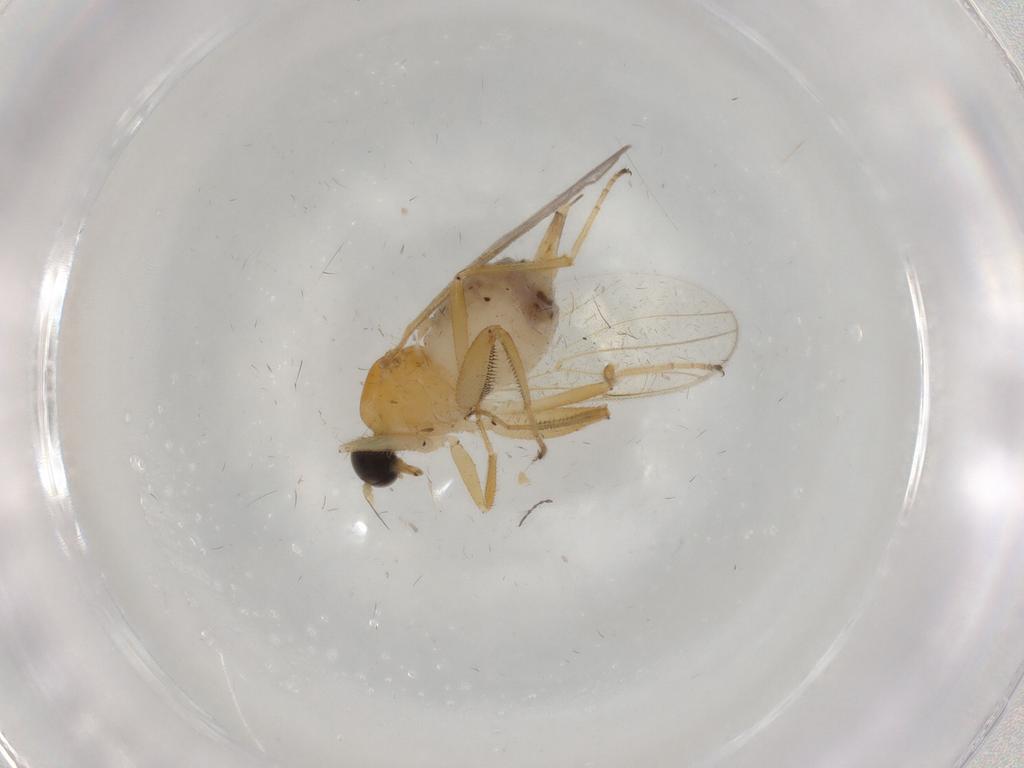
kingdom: Animalia
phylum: Arthropoda
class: Insecta
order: Diptera
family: Hybotidae
